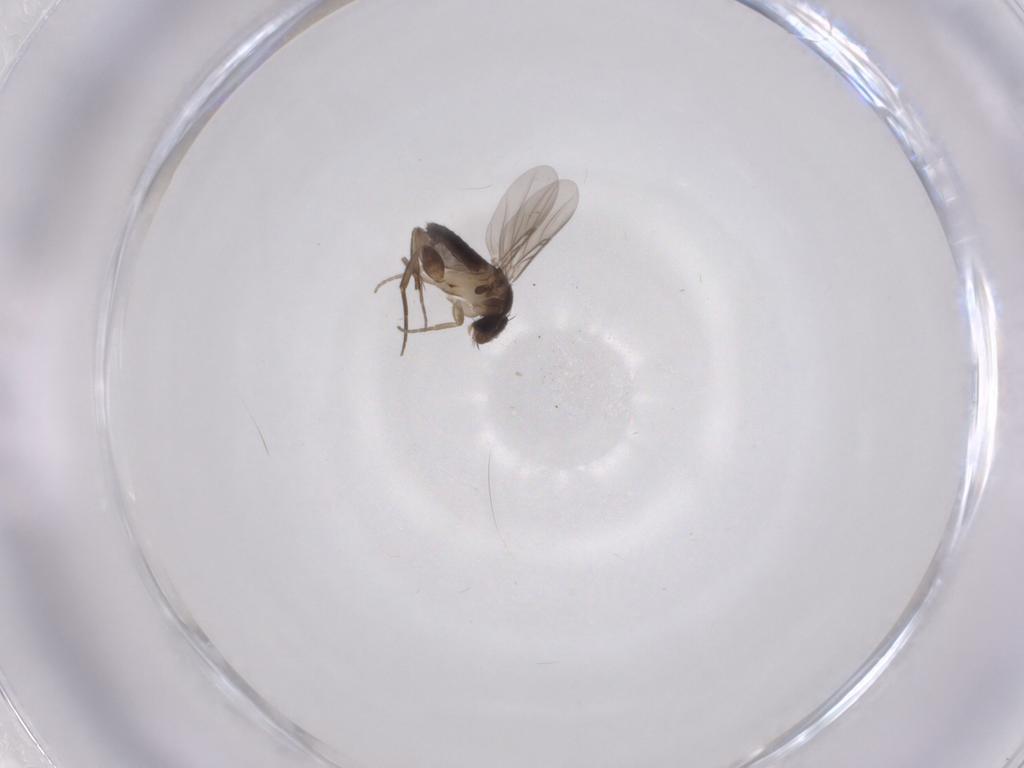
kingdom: Animalia
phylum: Arthropoda
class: Insecta
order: Diptera
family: Phoridae
